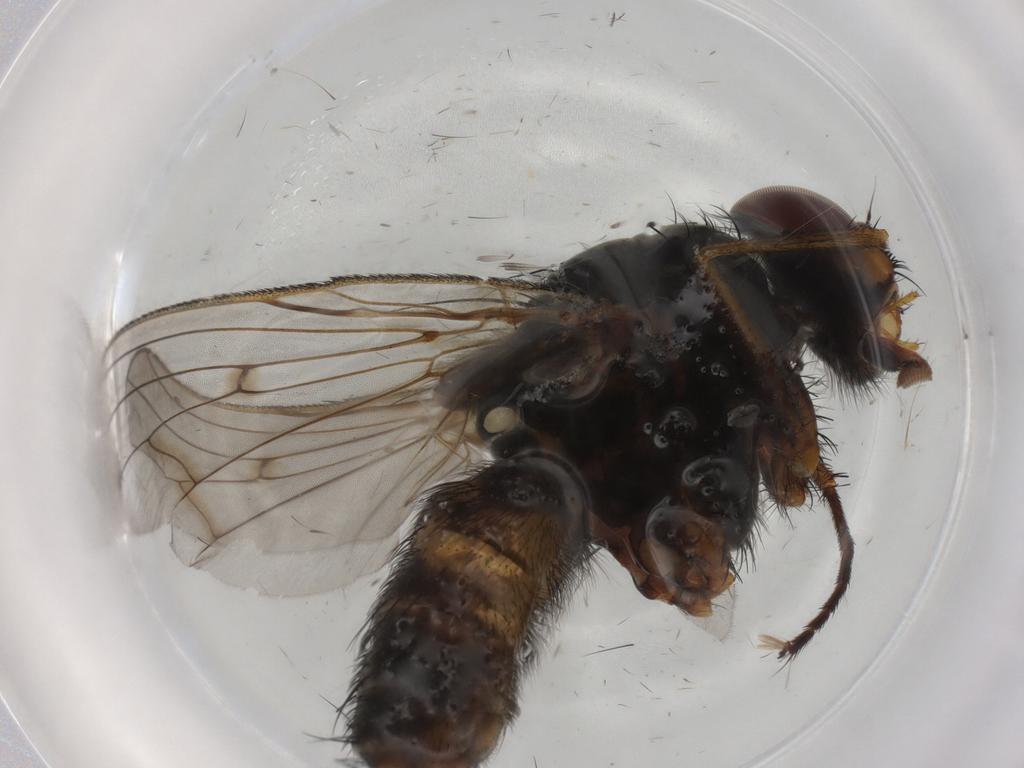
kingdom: Animalia
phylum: Arthropoda
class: Insecta
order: Diptera
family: Anthomyiidae
